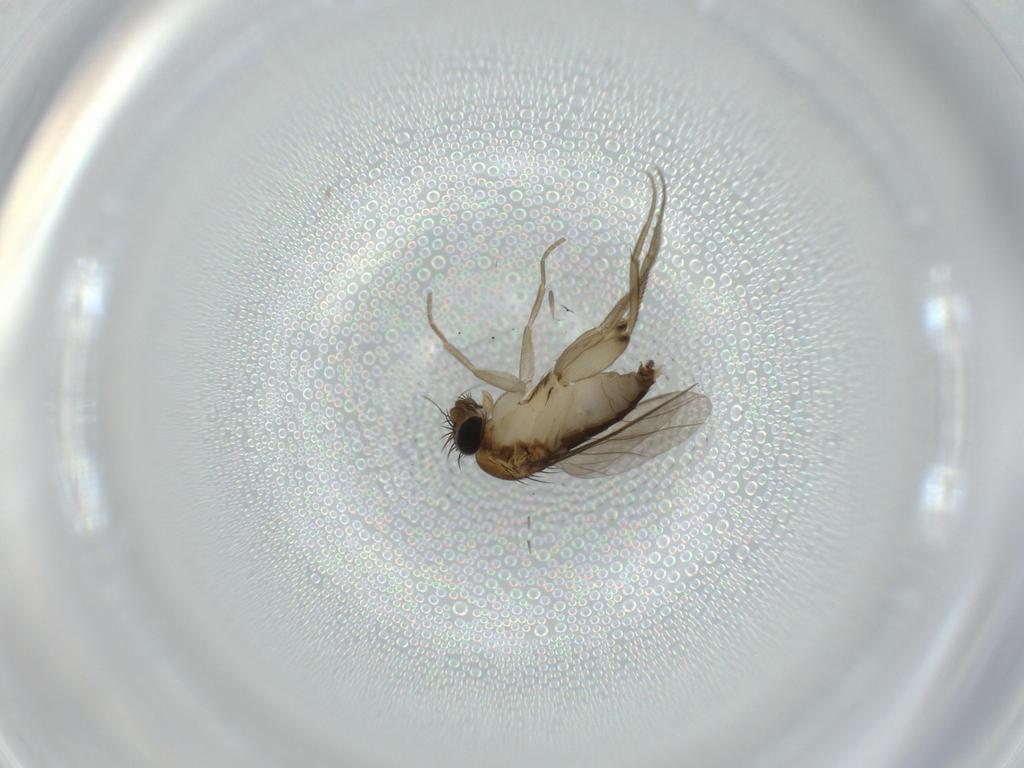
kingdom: Animalia
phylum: Arthropoda
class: Insecta
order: Diptera
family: Phoridae
